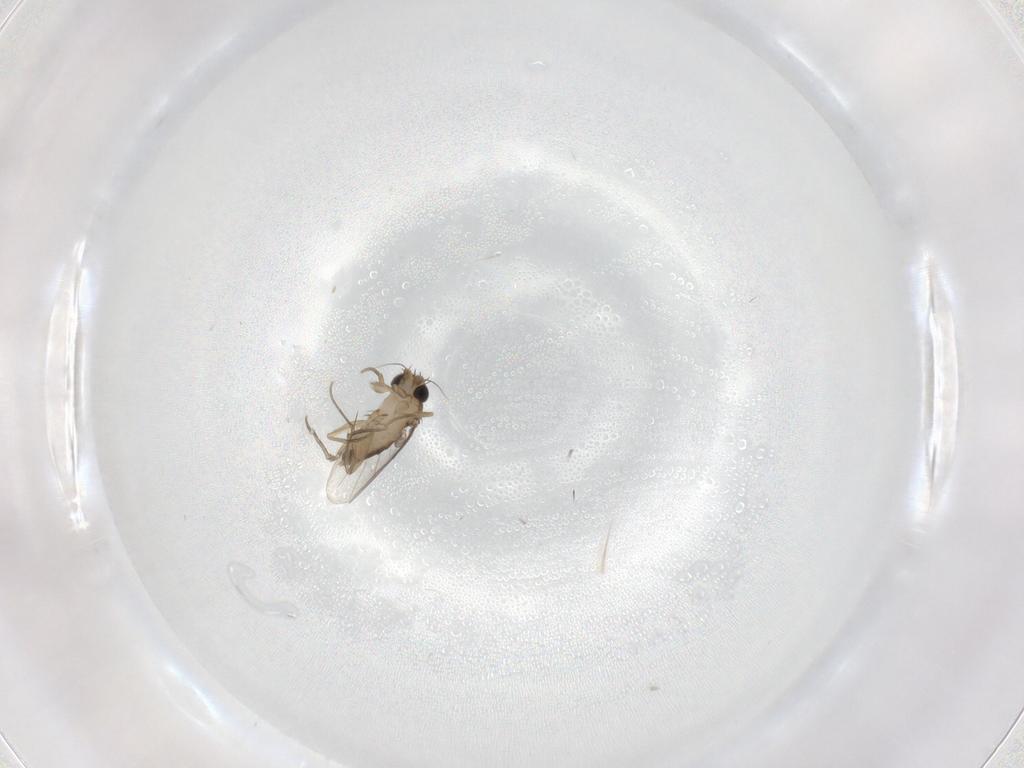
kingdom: Animalia
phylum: Arthropoda
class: Insecta
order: Diptera
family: Phoridae
